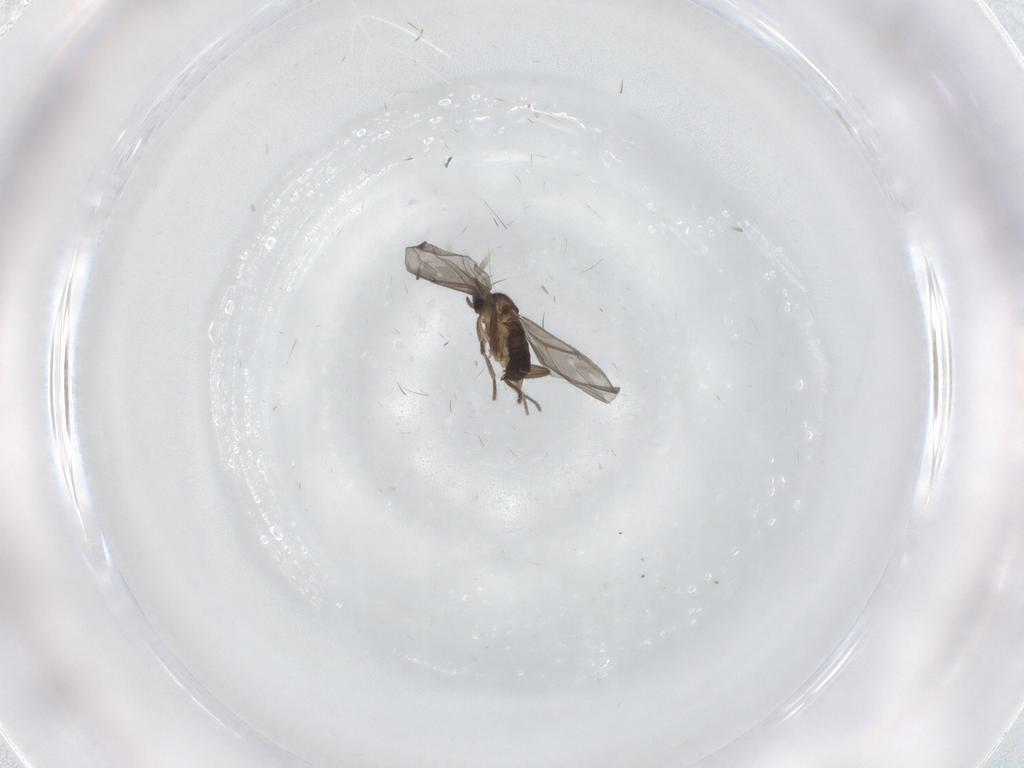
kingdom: Animalia
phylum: Arthropoda
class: Insecta
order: Diptera
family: Phoridae
